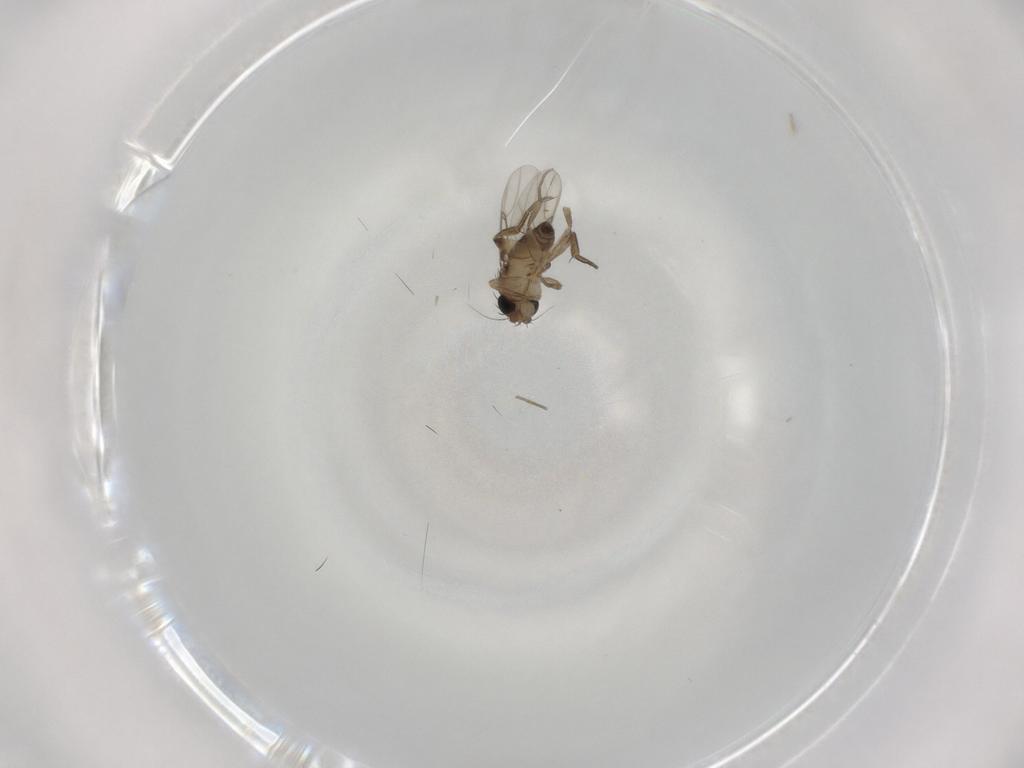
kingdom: Animalia
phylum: Arthropoda
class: Insecta
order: Diptera
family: Phoridae
